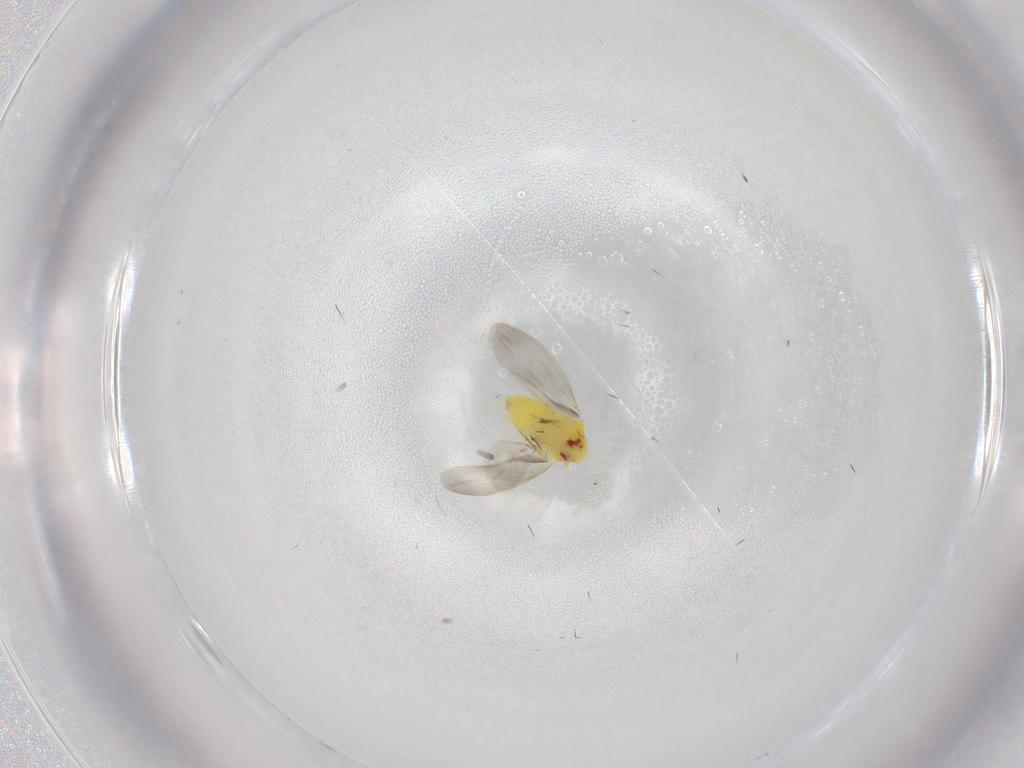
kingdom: Animalia
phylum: Arthropoda
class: Insecta
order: Hemiptera
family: Aleyrodidae
